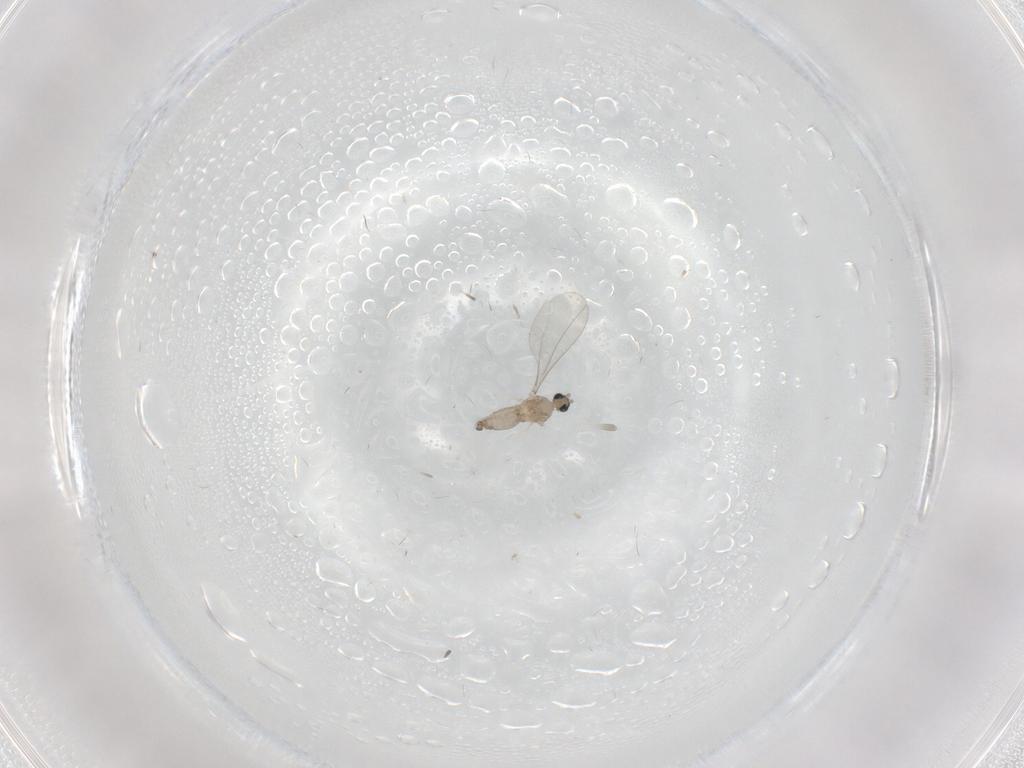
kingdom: Animalia
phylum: Arthropoda
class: Insecta
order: Diptera
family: Cecidomyiidae
